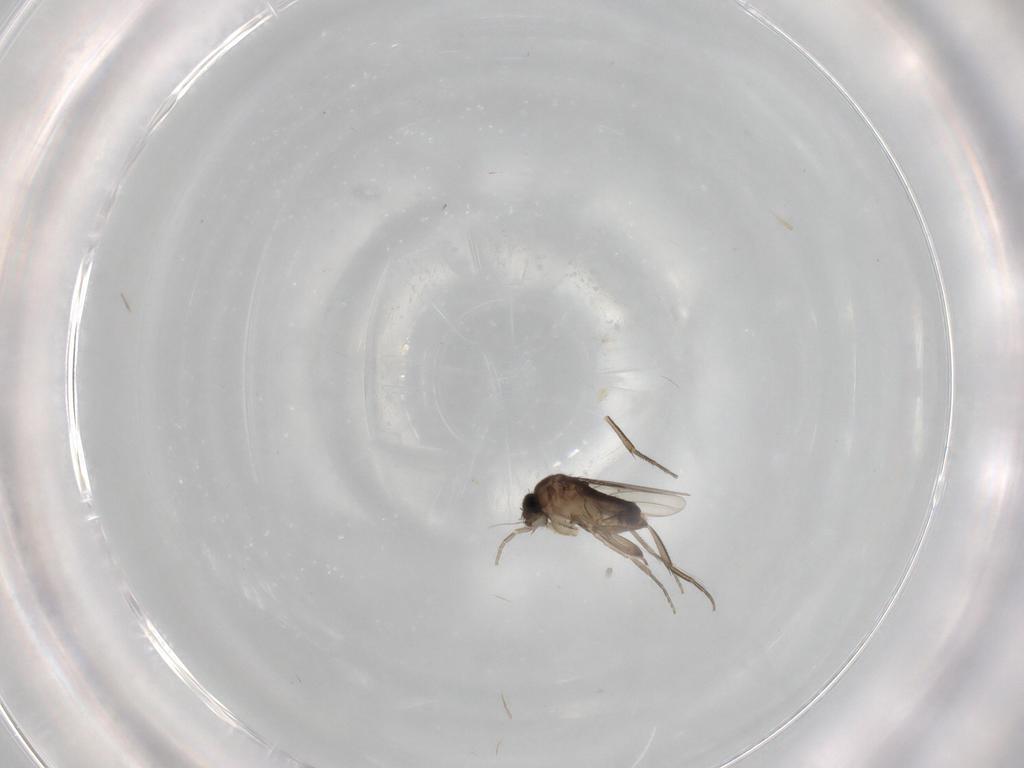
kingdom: Animalia
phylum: Arthropoda
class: Insecta
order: Diptera
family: Phoridae
